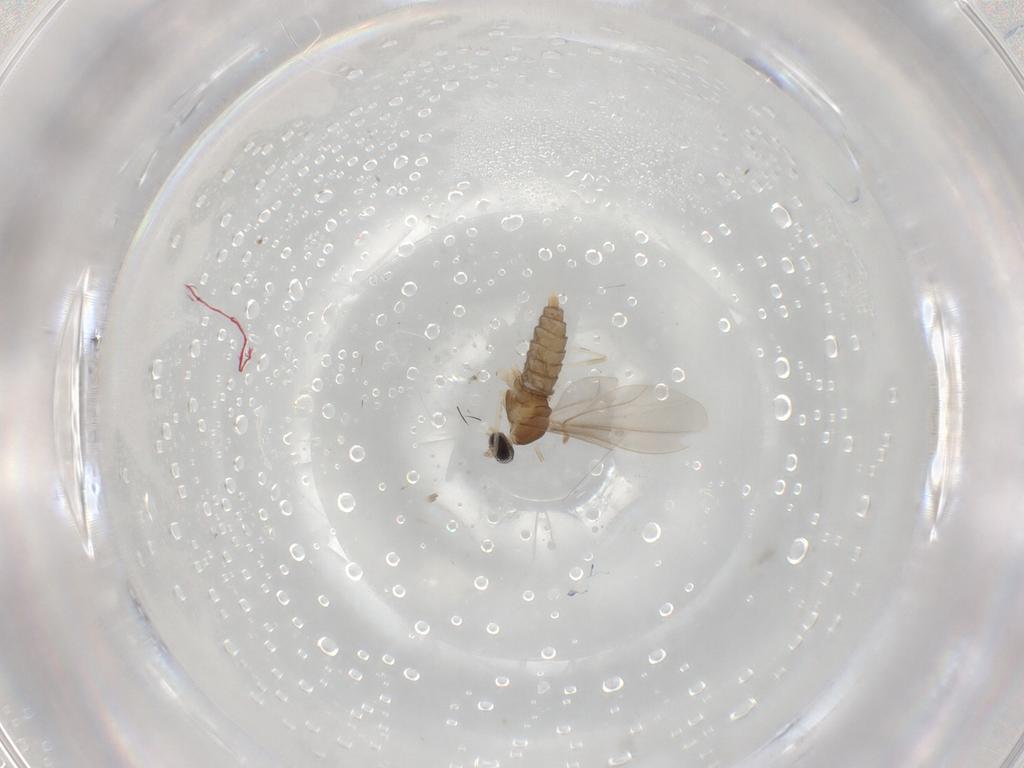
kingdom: Animalia
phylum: Arthropoda
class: Insecta
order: Diptera
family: Cecidomyiidae
